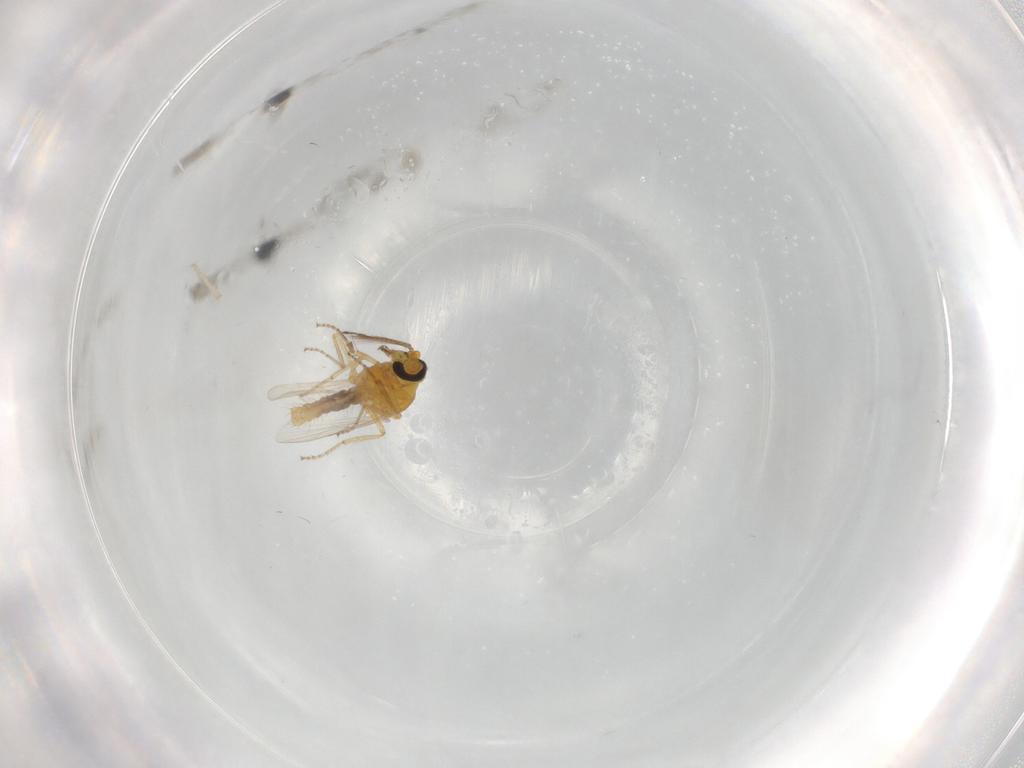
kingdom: Animalia
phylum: Arthropoda
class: Insecta
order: Diptera
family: Ceratopogonidae
